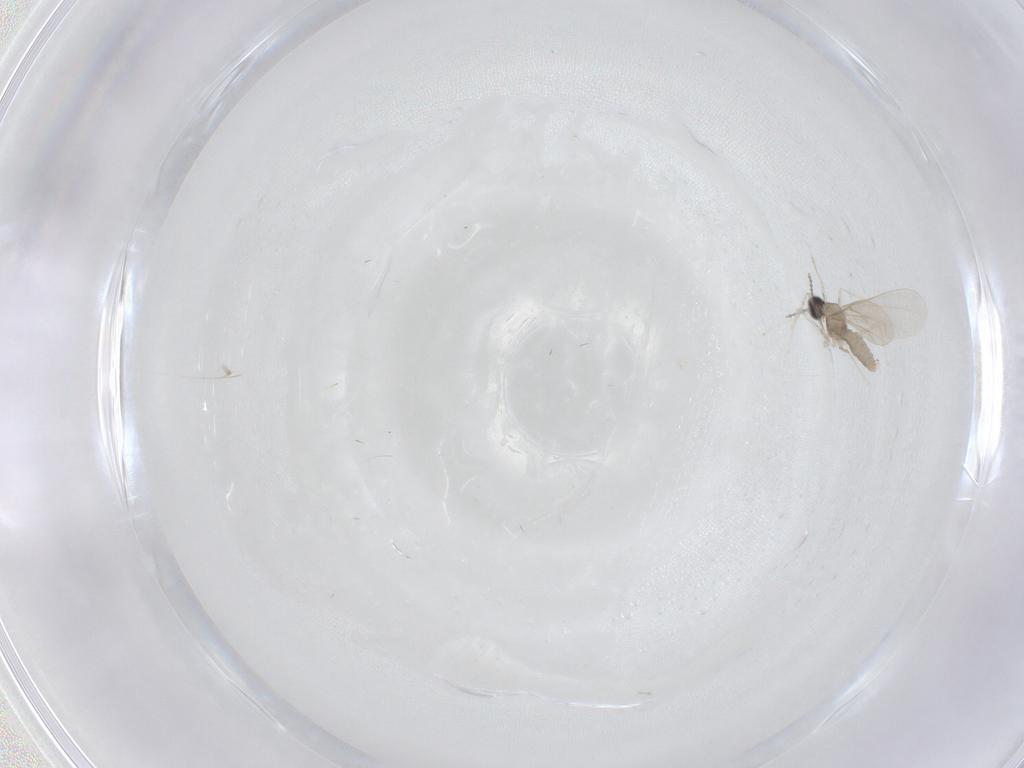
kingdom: Animalia
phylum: Arthropoda
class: Insecta
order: Diptera
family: Cecidomyiidae
